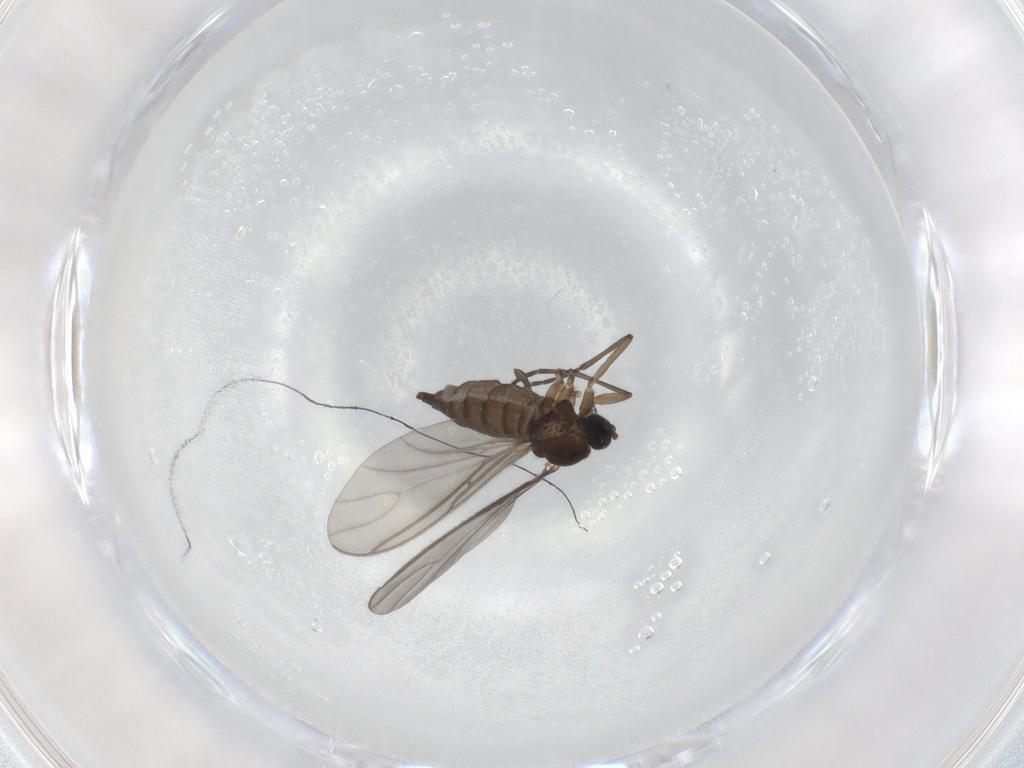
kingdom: Animalia
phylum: Arthropoda
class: Insecta
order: Diptera
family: Sciaridae
